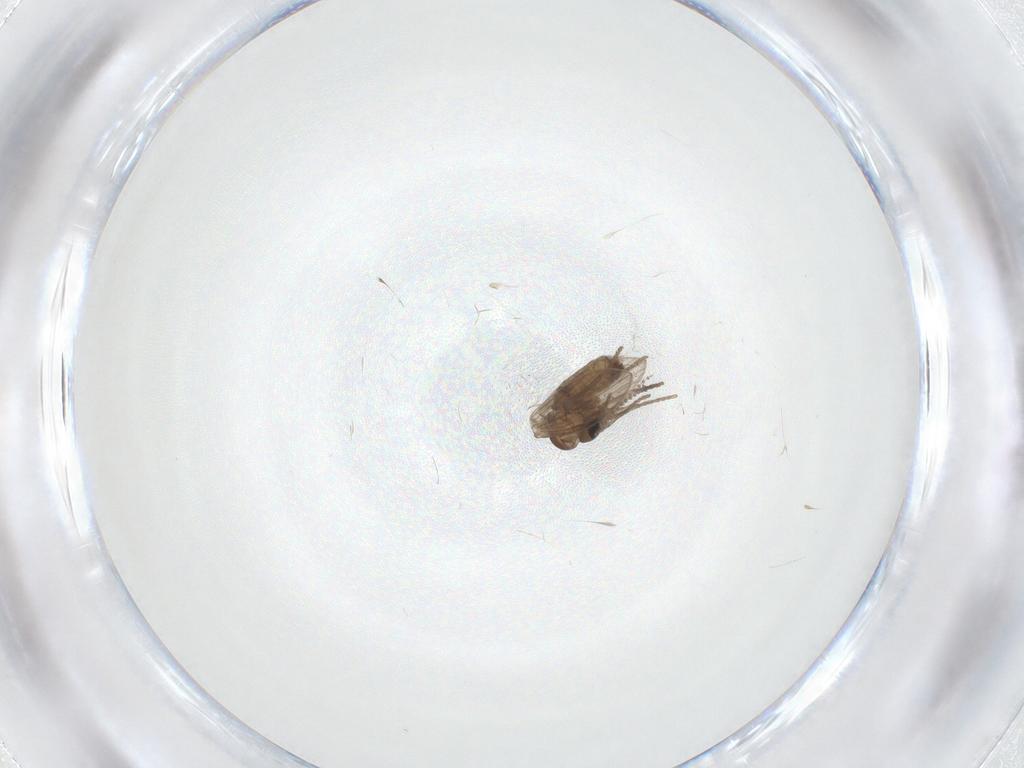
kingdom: Animalia
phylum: Arthropoda
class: Insecta
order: Diptera
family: Psychodidae
